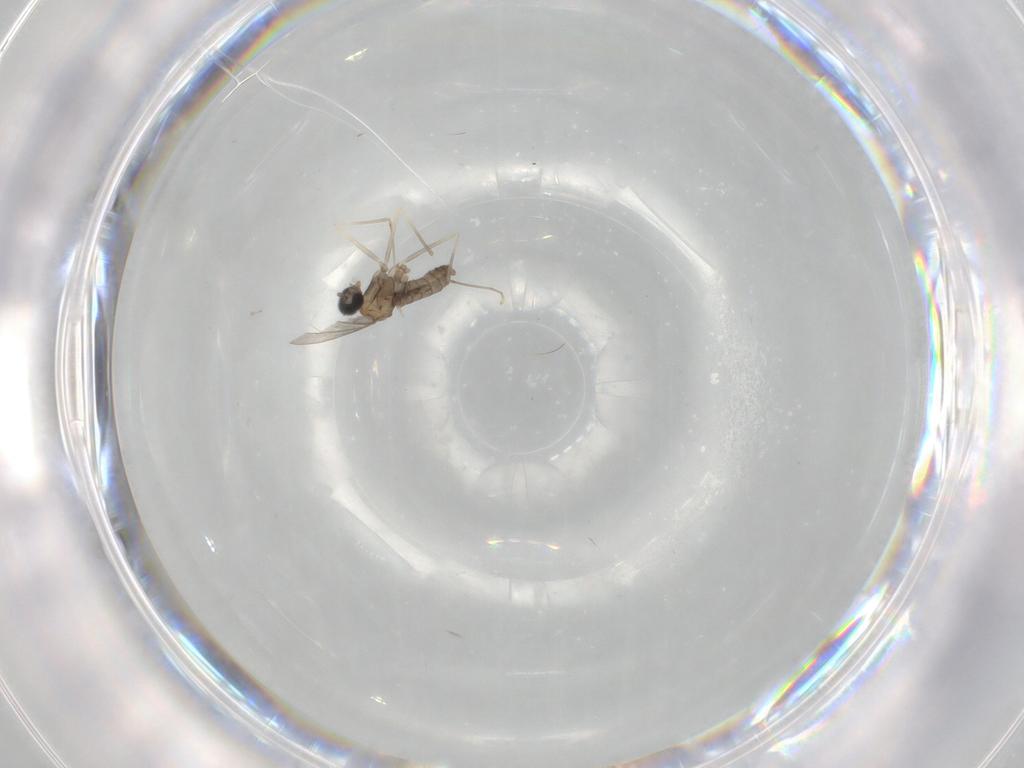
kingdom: Animalia
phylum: Arthropoda
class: Insecta
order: Diptera
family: Cecidomyiidae
